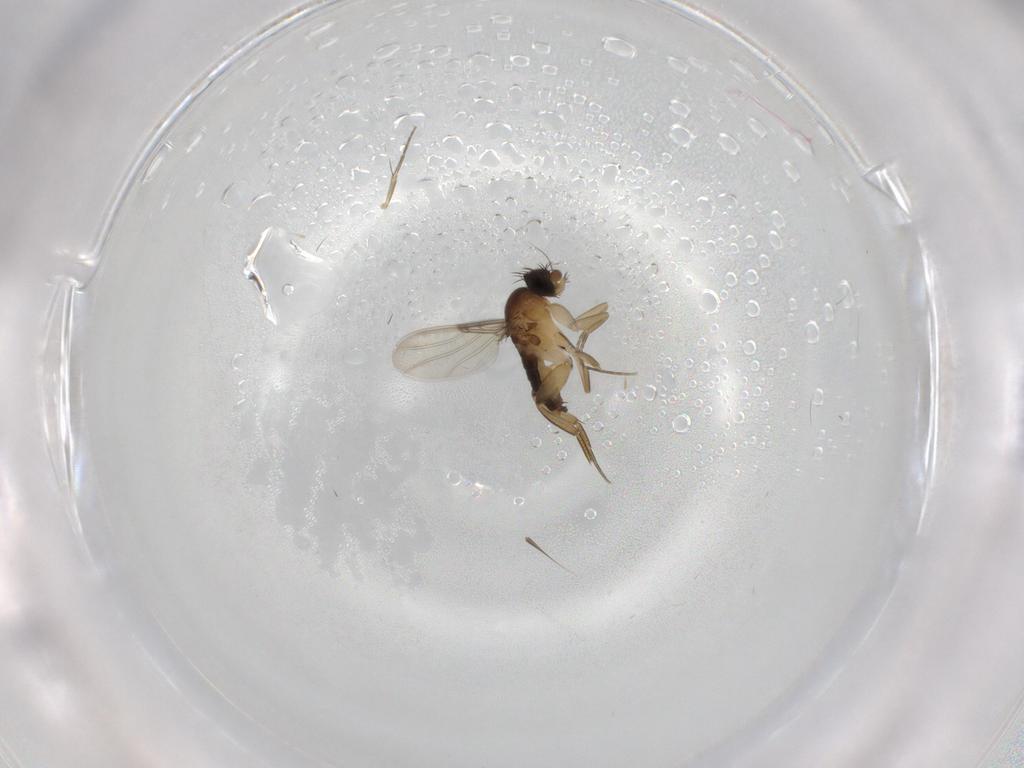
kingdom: Animalia
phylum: Arthropoda
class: Insecta
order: Diptera
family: Phoridae
